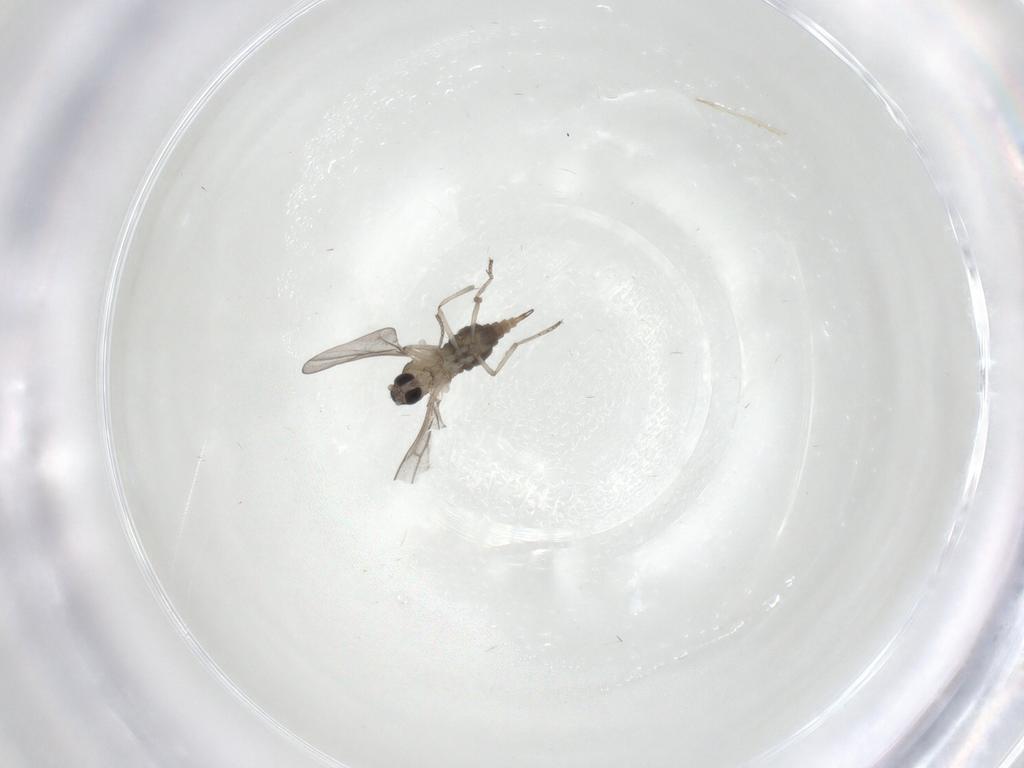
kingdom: Animalia
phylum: Arthropoda
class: Insecta
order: Diptera
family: Cecidomyiidae
